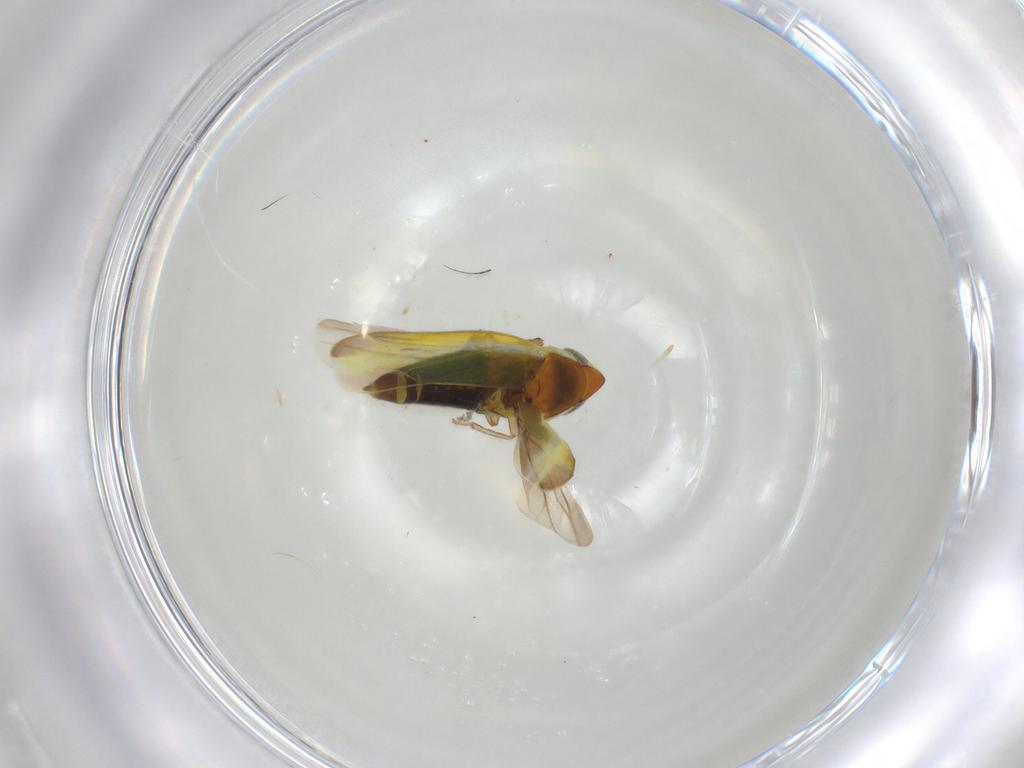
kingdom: Animalia
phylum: Arthropoda
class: Insecta
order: Hemiptera
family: Cicadellidae
